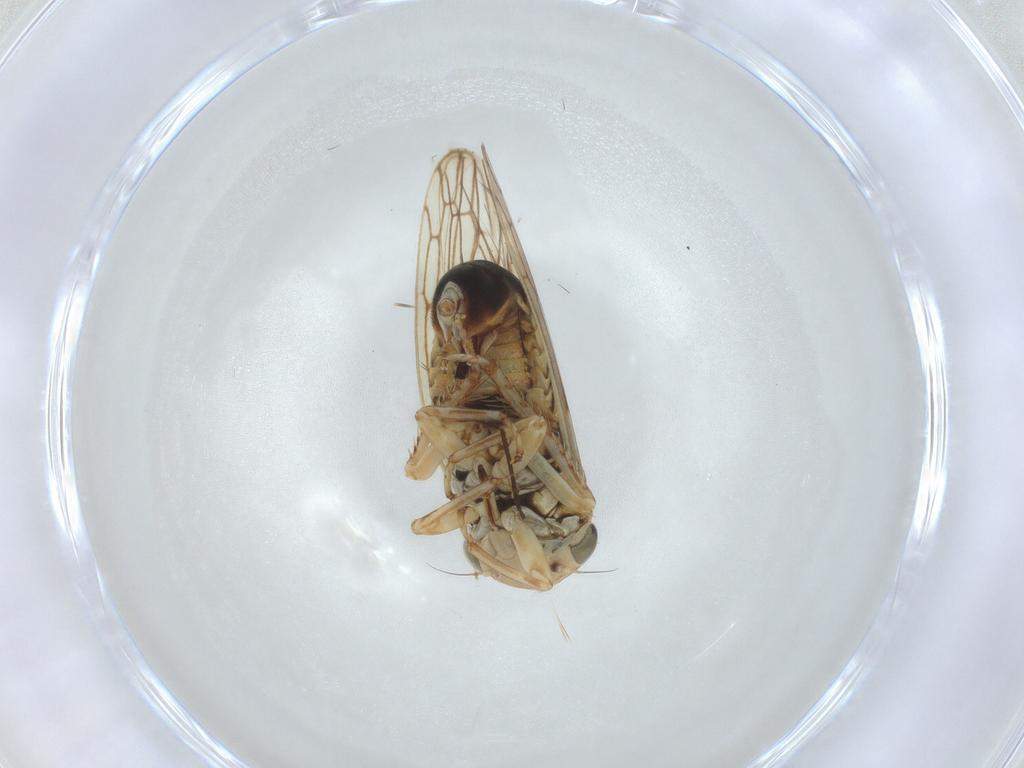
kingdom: Animalia
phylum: Arthropoda
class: Insecta
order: Hemiptera
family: Cicadellidae
